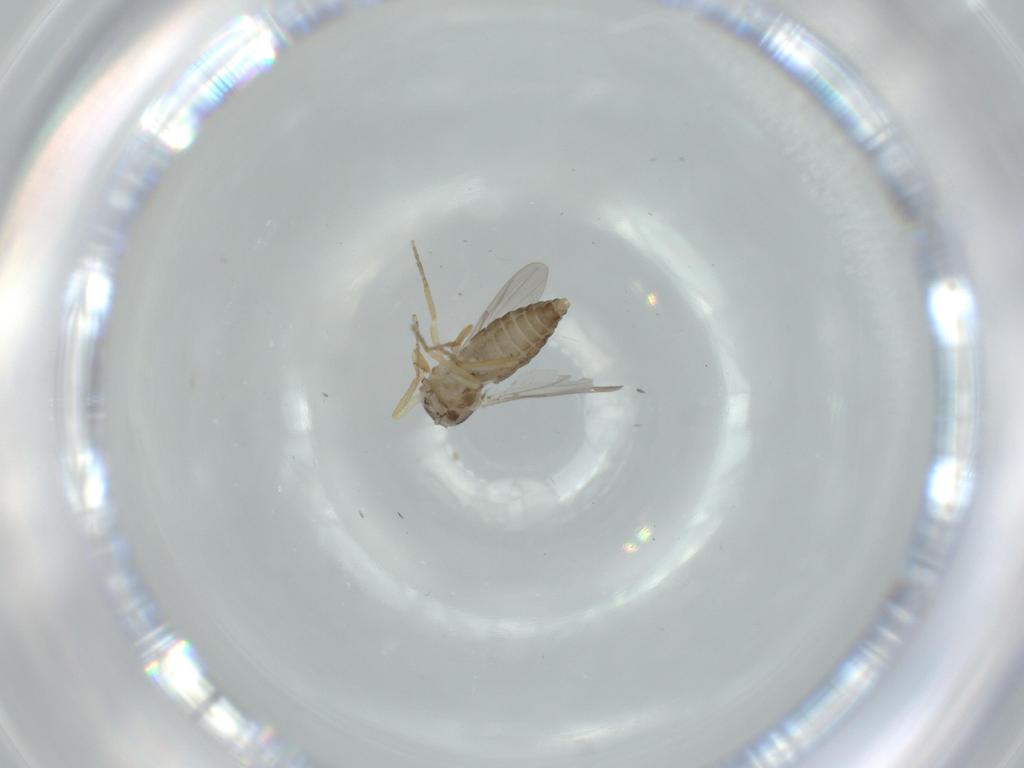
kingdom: Animalia
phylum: Arthropoda
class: Insecta
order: Diptera
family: Ceratopogonidae
